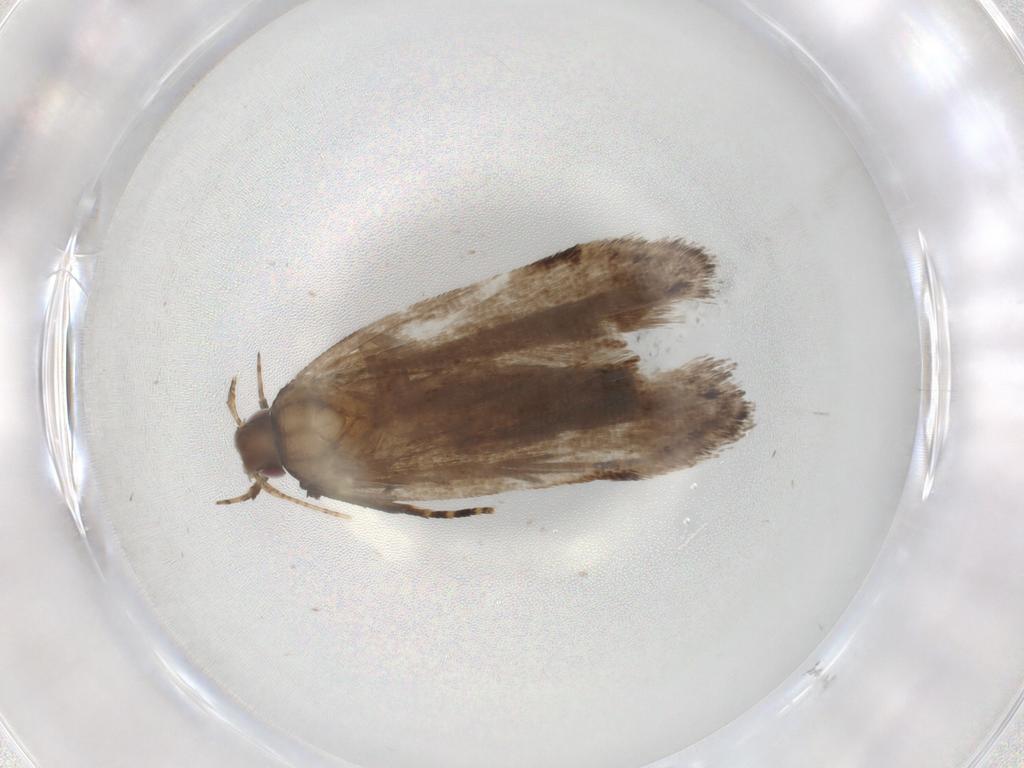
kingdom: Animalia
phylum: Arthropoda
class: Insecta
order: Lepidoptera
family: Gelechiidae
